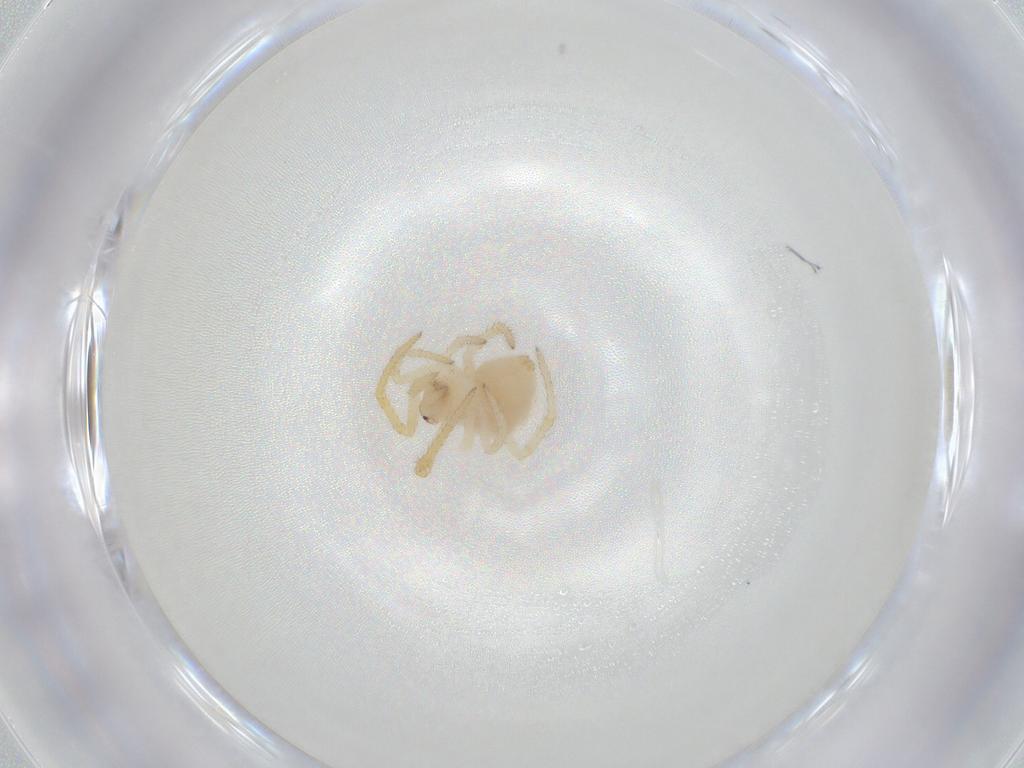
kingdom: Animalia
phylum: Arthropoda
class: Arachnida
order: Araneae
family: Theridiidae
